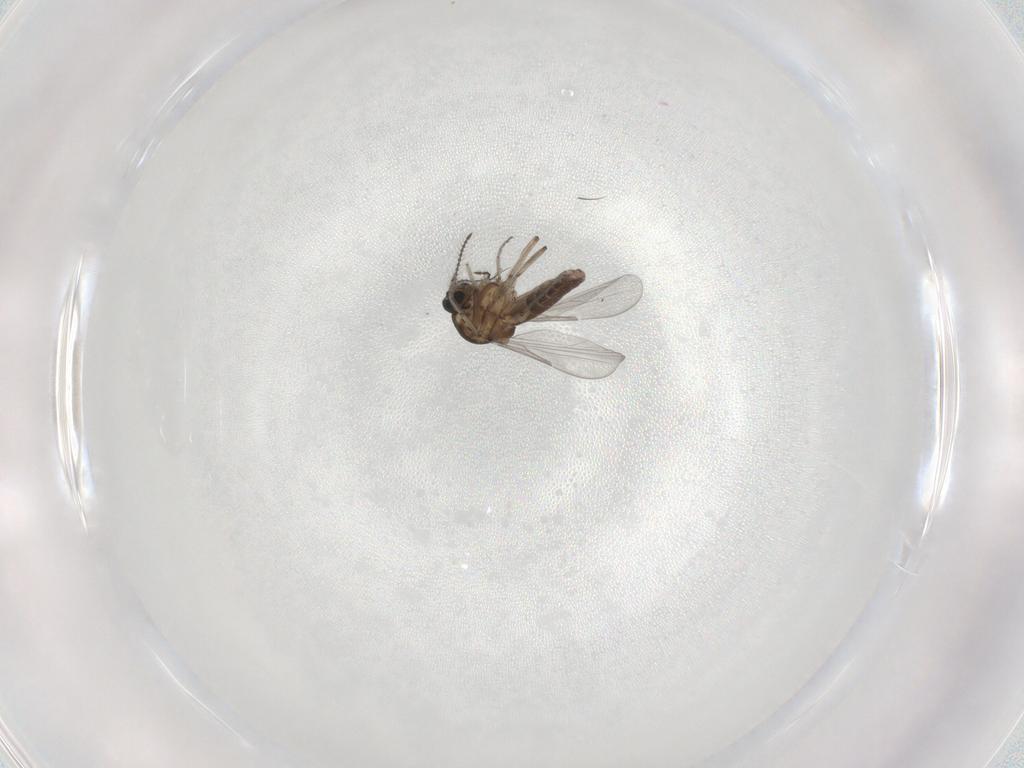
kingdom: Animalia
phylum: Arthropoda
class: Insecta
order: Diptera
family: Ceratopogonidae
